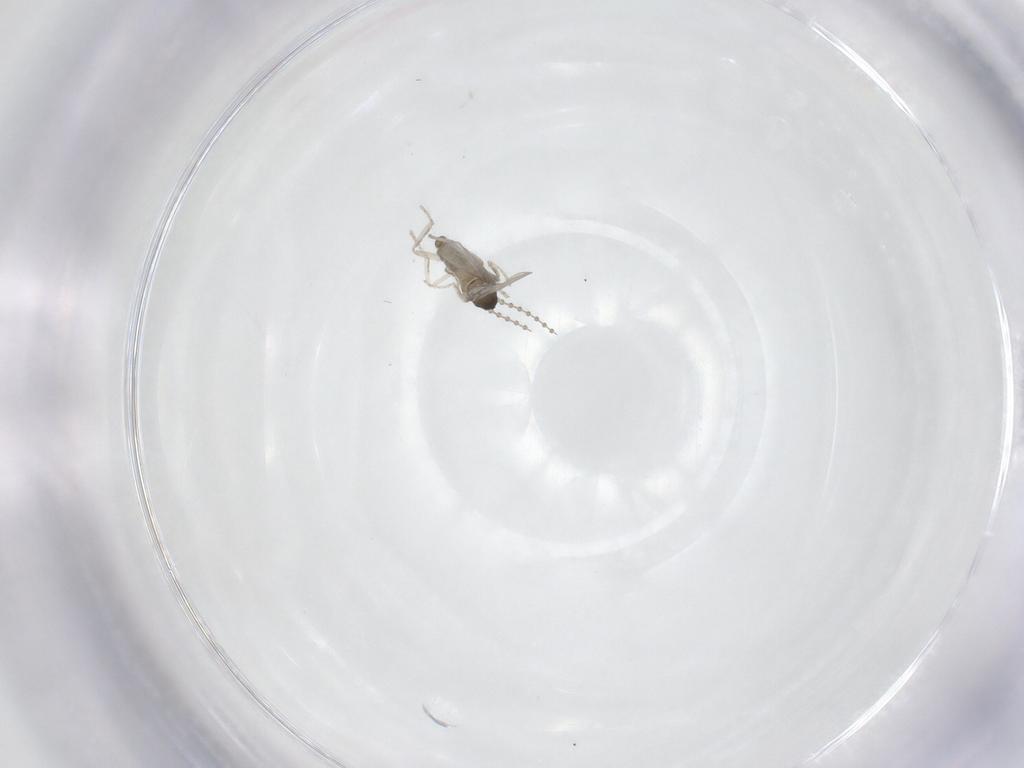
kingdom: Animalia
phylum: Arthropoda
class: Insecta
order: Diptera
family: Cecidomyiidae
